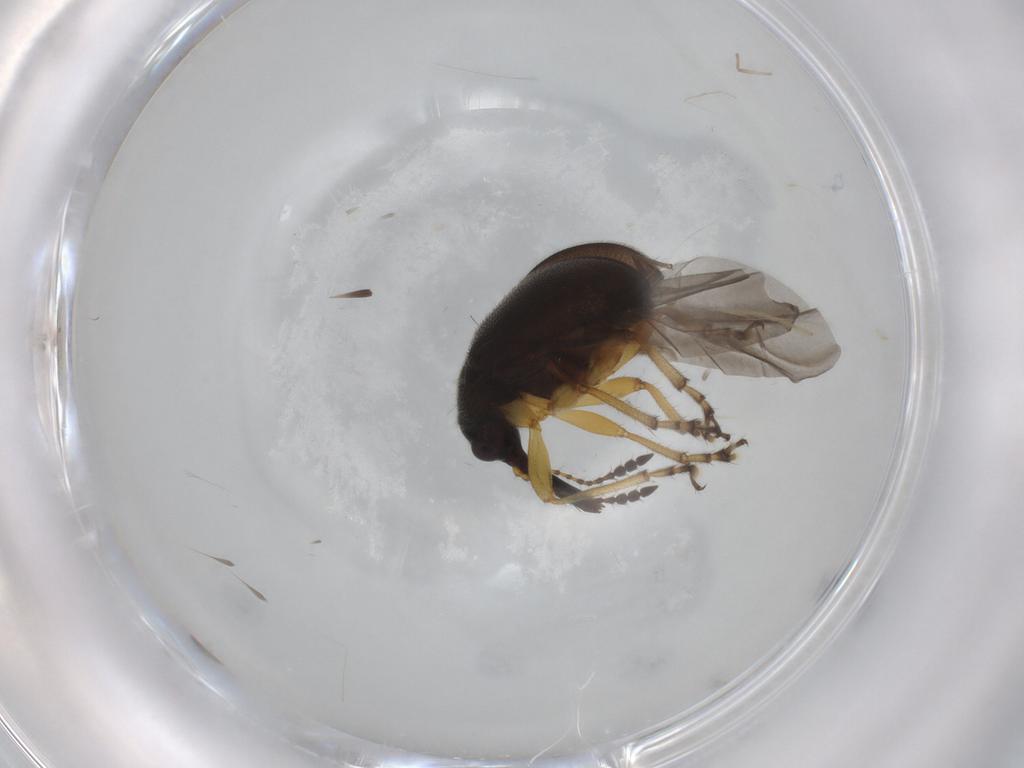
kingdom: Animalia
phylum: Arthropoda
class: Insecta
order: Coleoptera
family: Attelabidae
